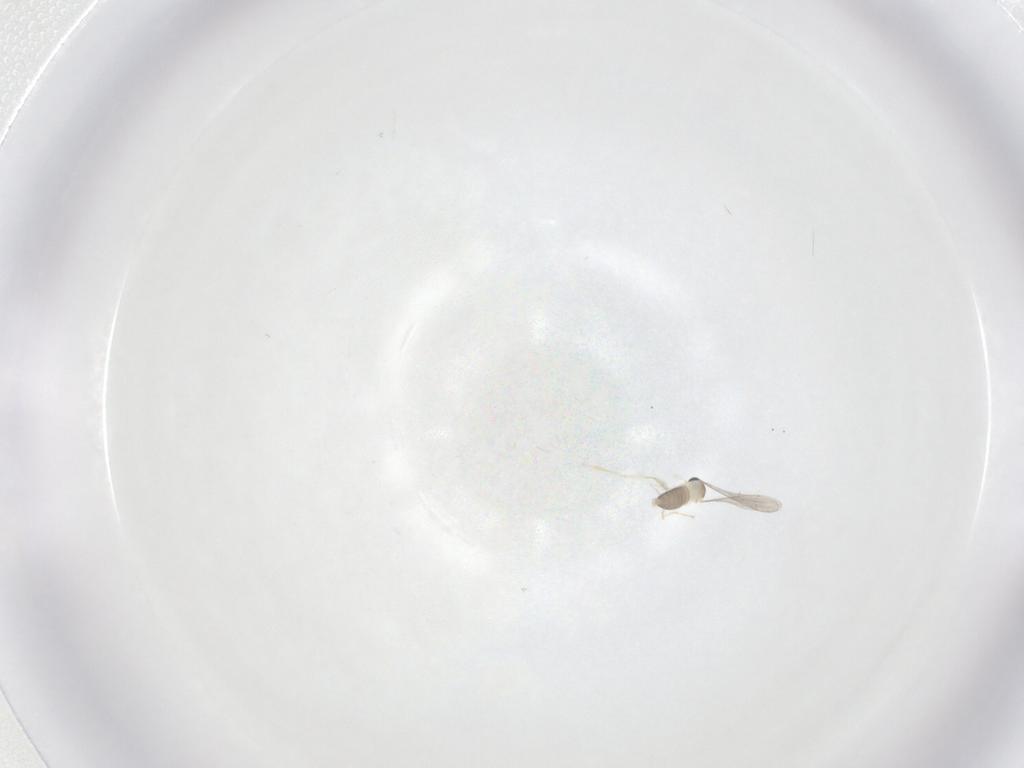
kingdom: Animalia
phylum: Arthropoda
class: Insecta
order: Diptera
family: Cecidomyiidae
